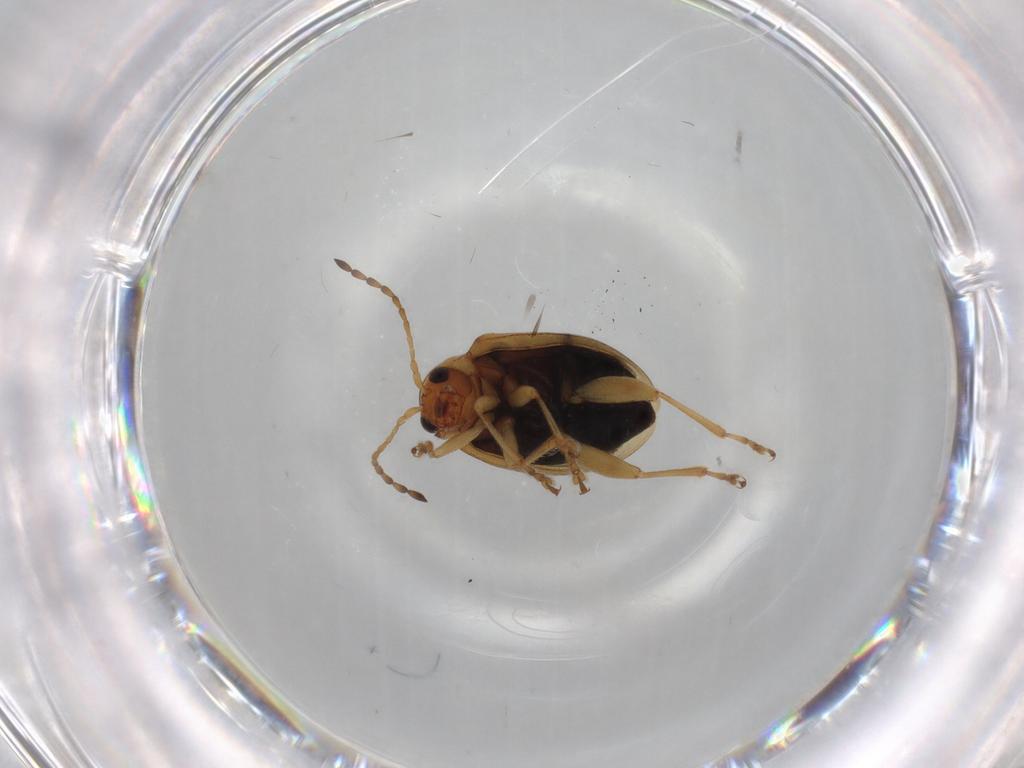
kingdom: Animalia
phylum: Arthropoda
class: Insecta
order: Coleoptera
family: Chrysomelidae
